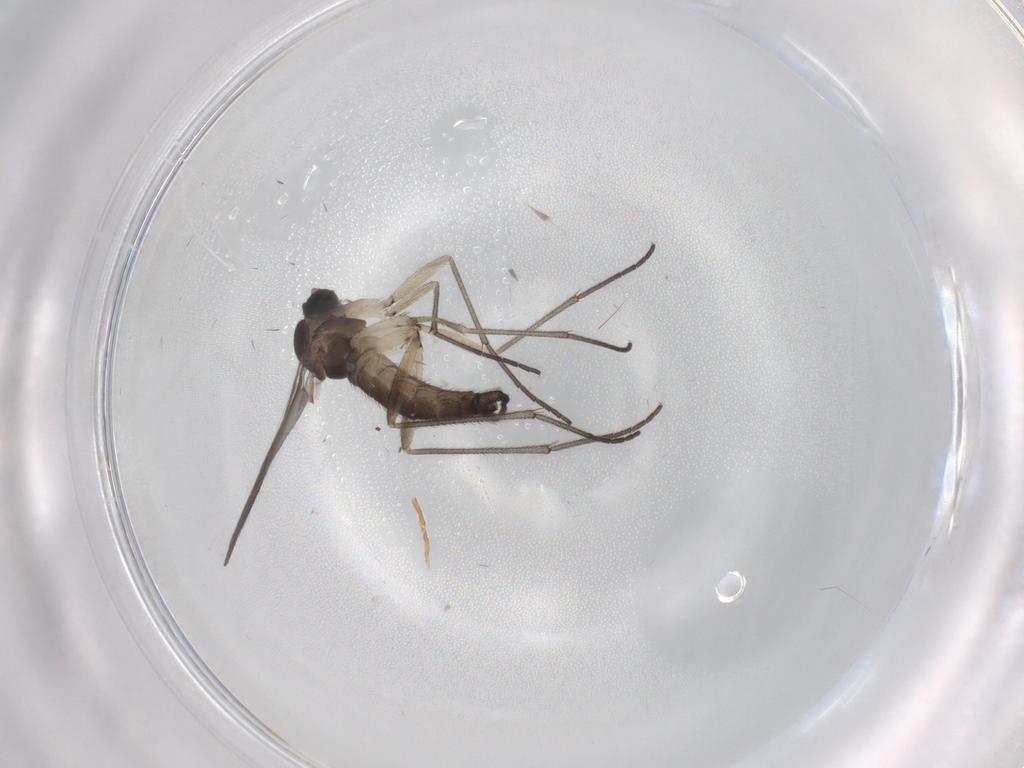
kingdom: Animalia
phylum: Arthropoda
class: Insecta
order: Diptera
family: Sciaridae
